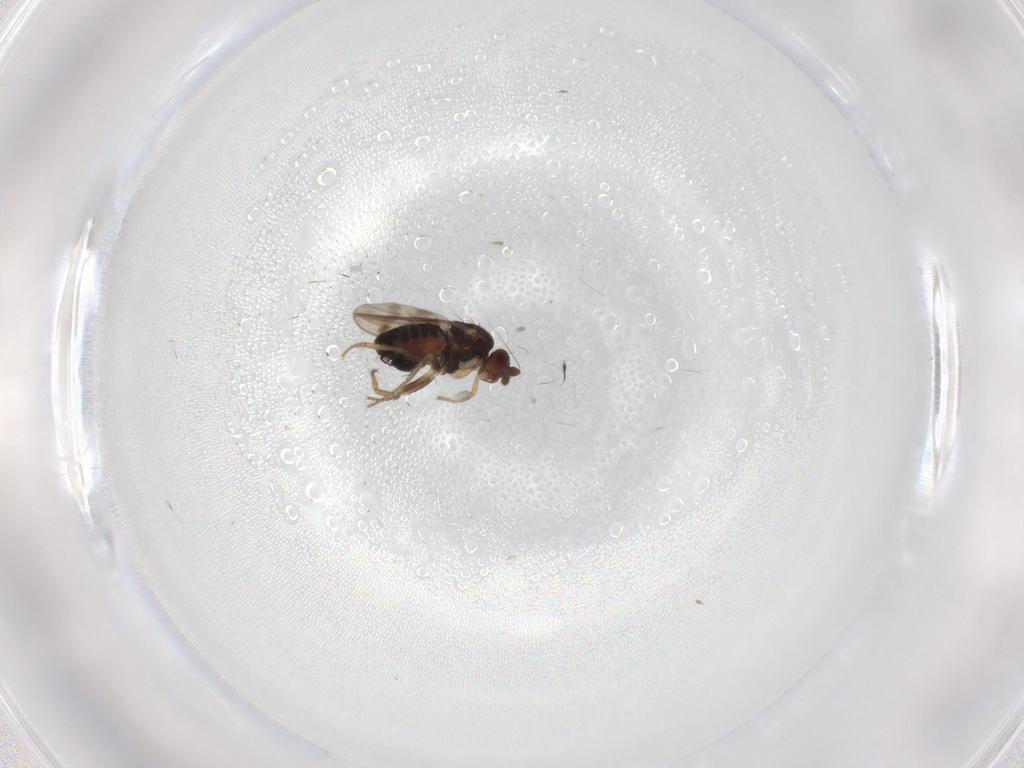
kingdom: Animalia
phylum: Arthropoda
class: Insecta
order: Diptera
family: Sphaeroceridae
